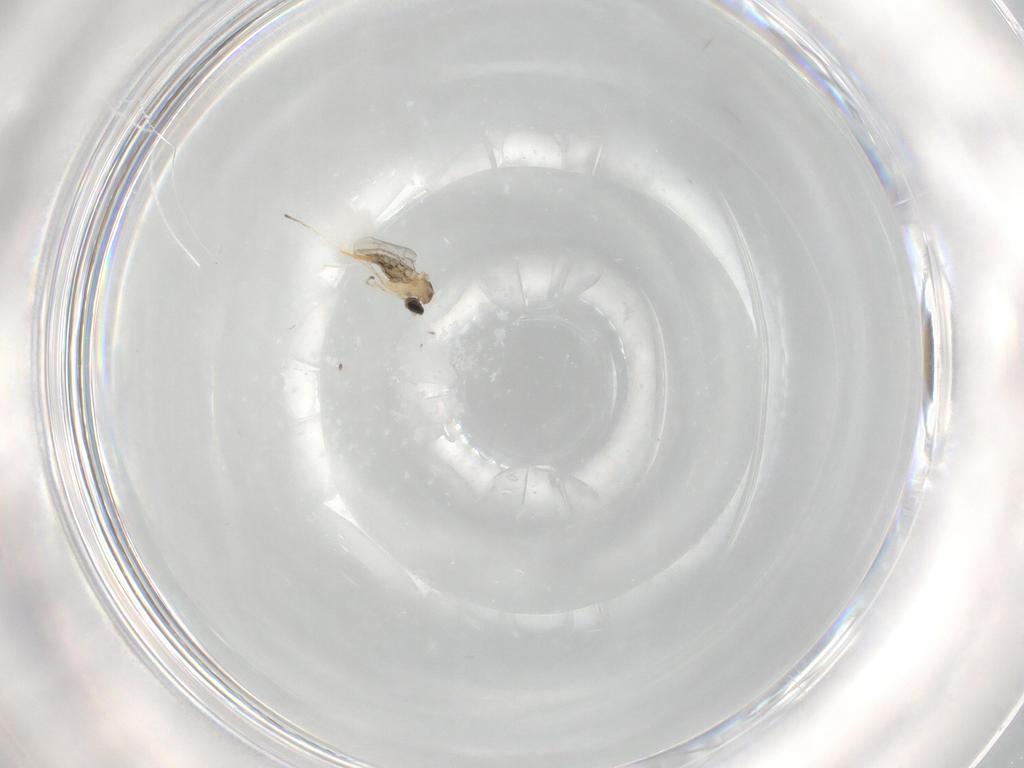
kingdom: Animalia
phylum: Arthropoda
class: Insecta
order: Diptera
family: Cecidomyiidae
